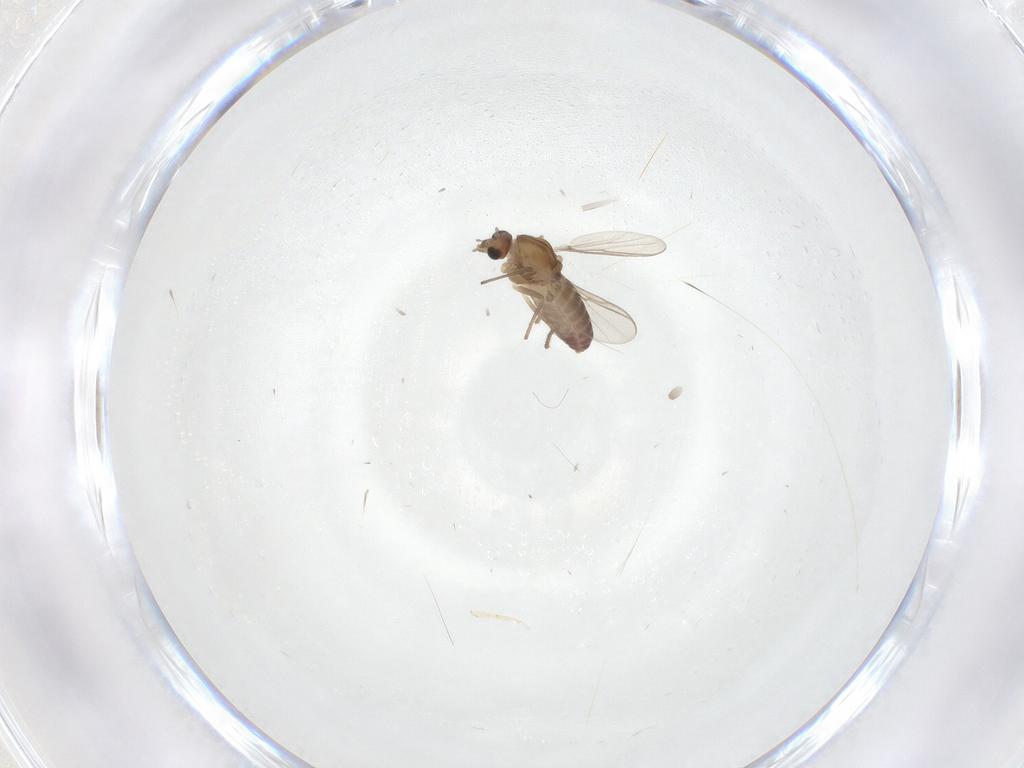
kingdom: Animalia
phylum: Arthropoda
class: Insecta
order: Diptera
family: Chironomidae
